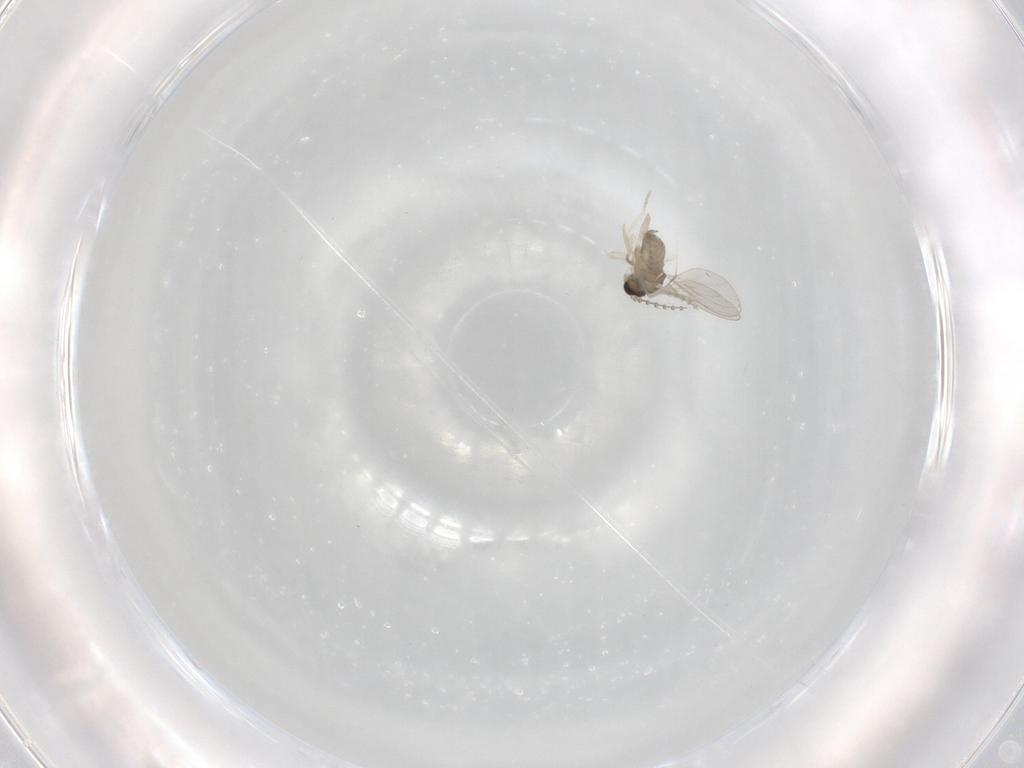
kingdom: Animalia
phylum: Arthropoda
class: Insecta
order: Diptera
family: Cecidomyiidae
